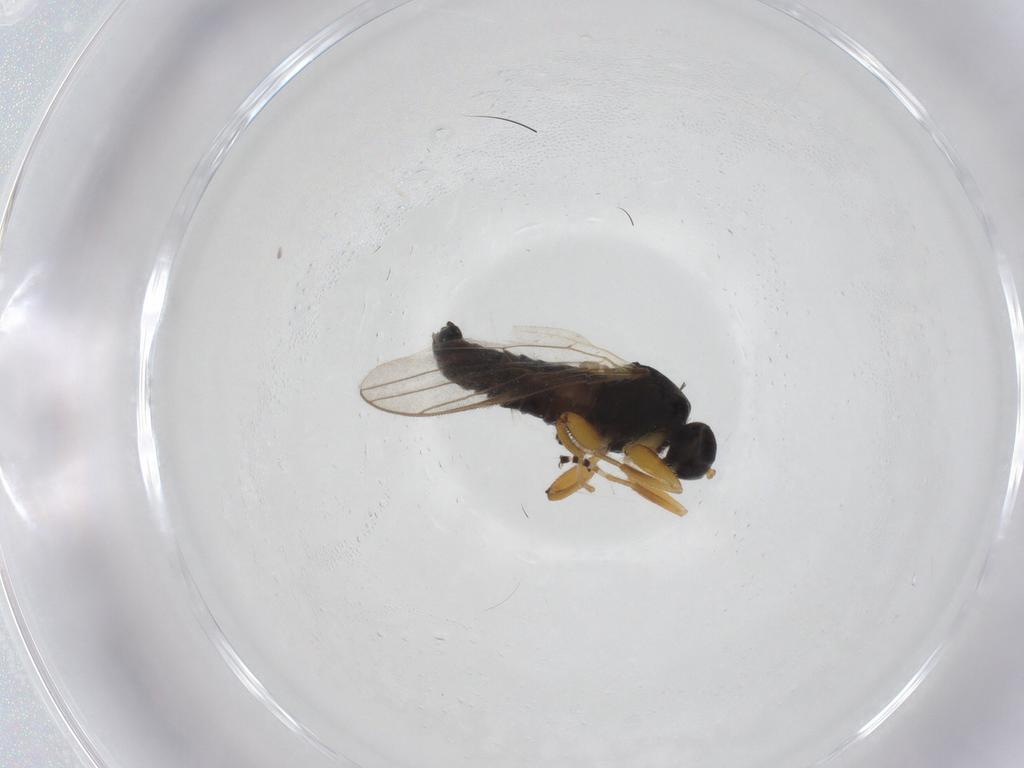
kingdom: Animalia
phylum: Arthropoda
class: Insecta
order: Diptera
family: Hybotidae
